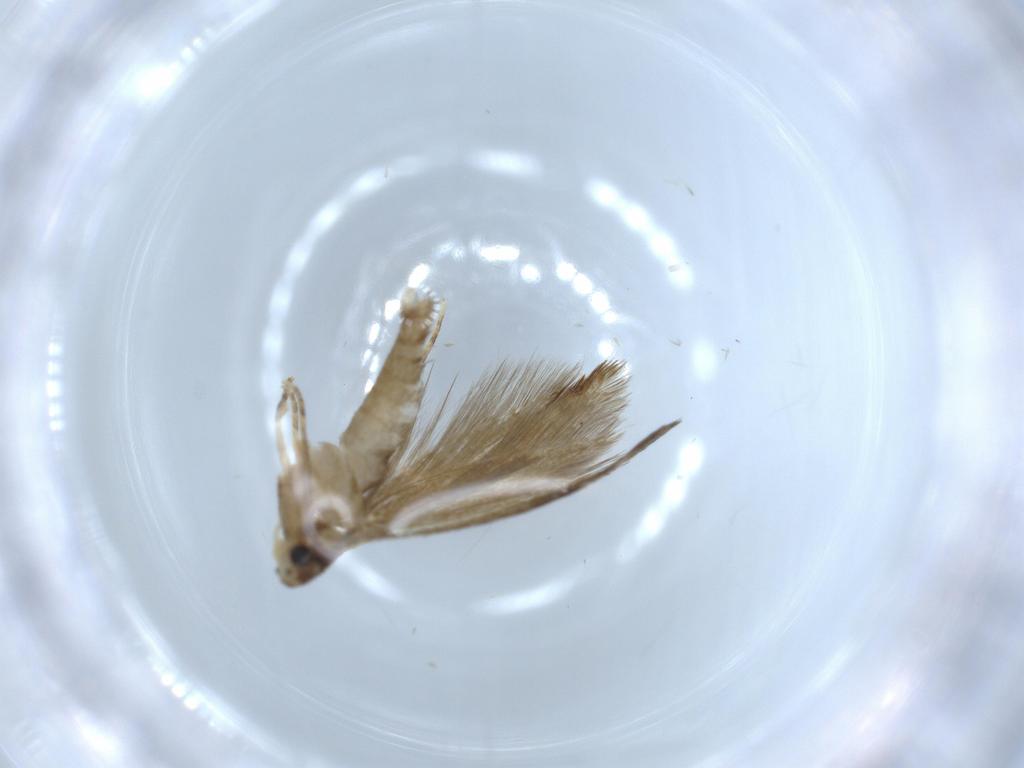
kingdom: Animalia
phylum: Arthropoda
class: Insecta
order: Lepidoptera
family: Tineidae
